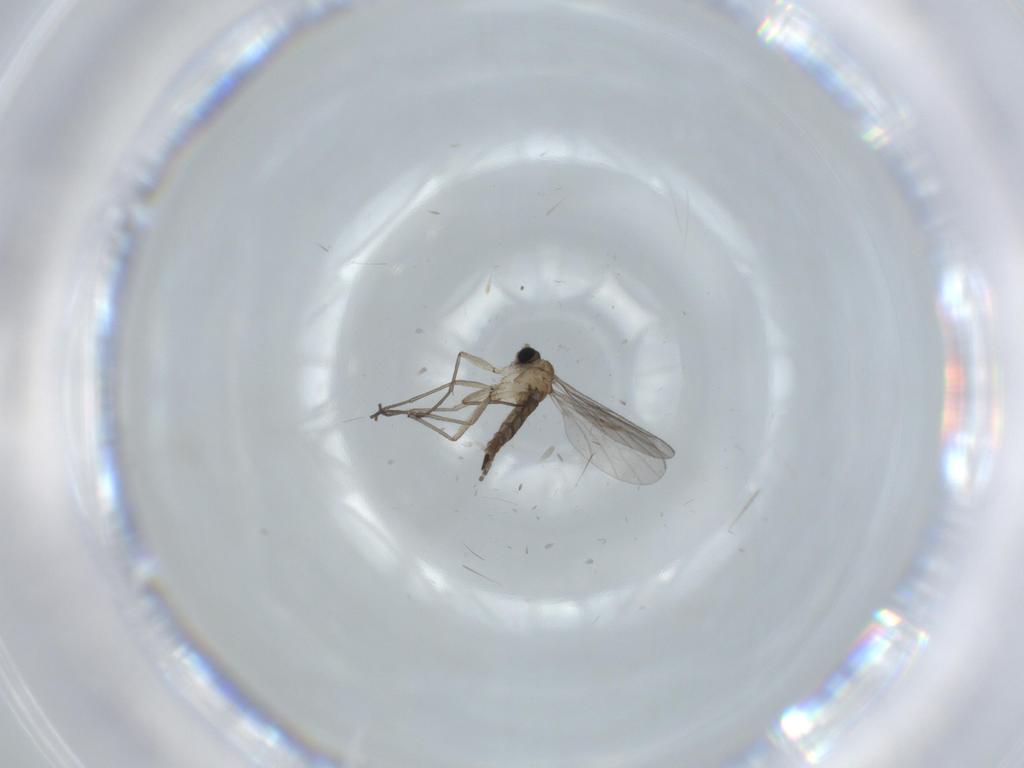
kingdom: Animalia
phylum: Arthropoda
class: Insecta
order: Diptera
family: Sciaridae
